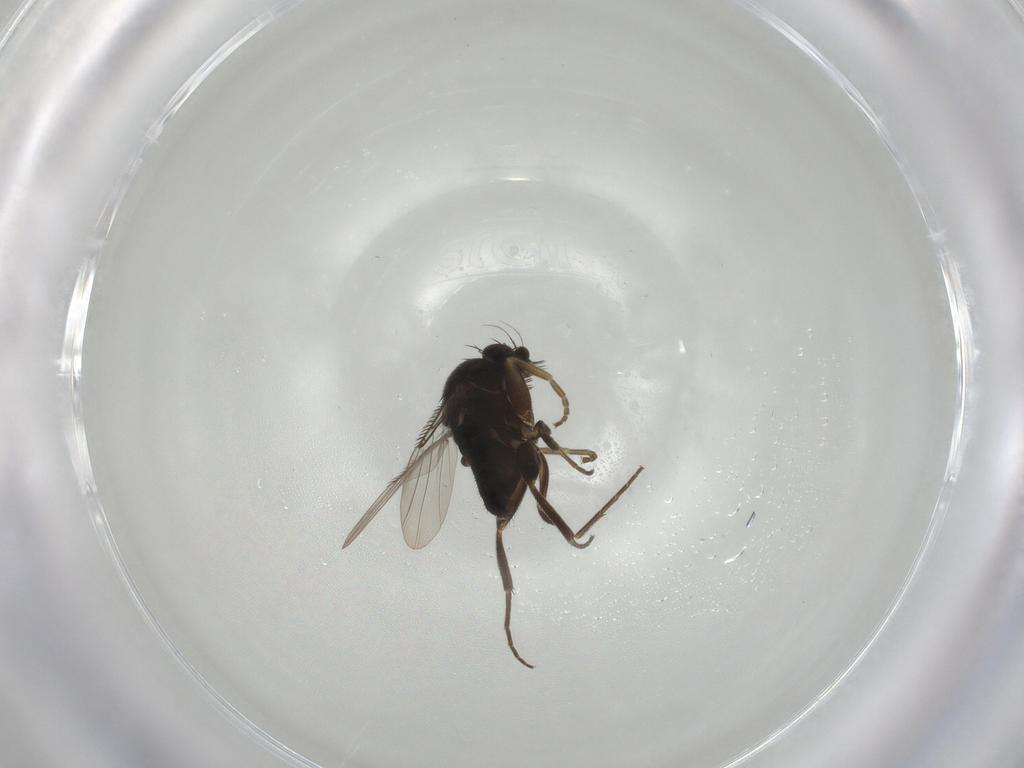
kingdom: Animalia
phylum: Arthropoda
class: Insecta
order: Diptera
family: Phoridae
